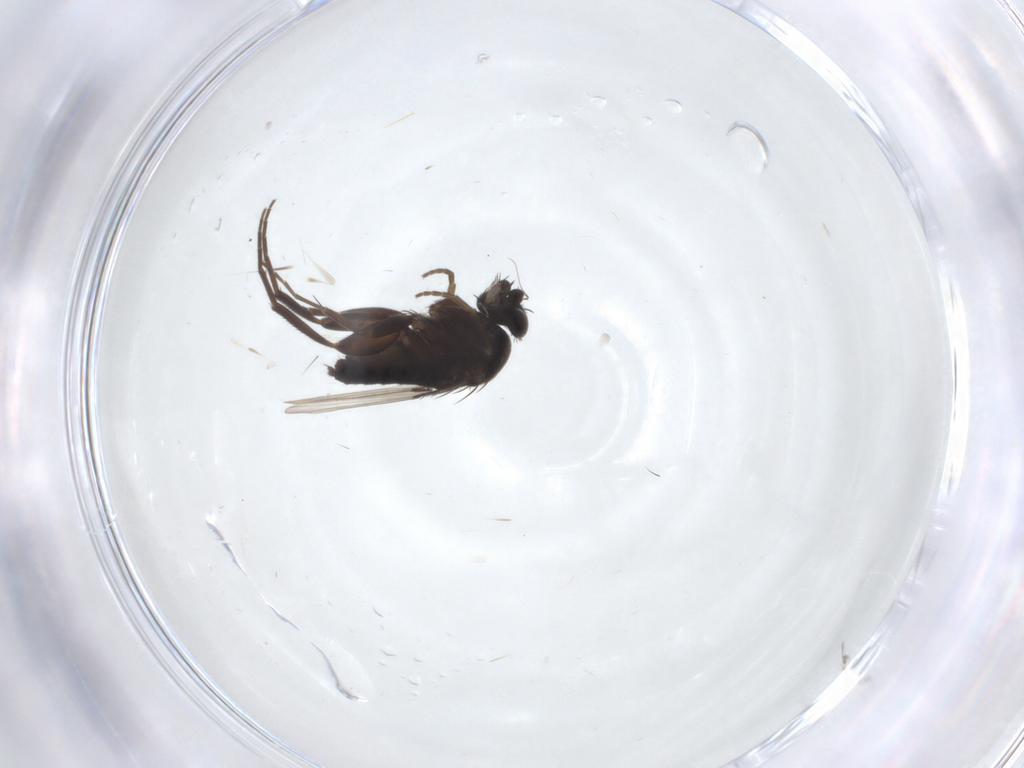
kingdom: Animalia
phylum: Arthropoda
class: Insecta
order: Diptera
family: Phoridae
